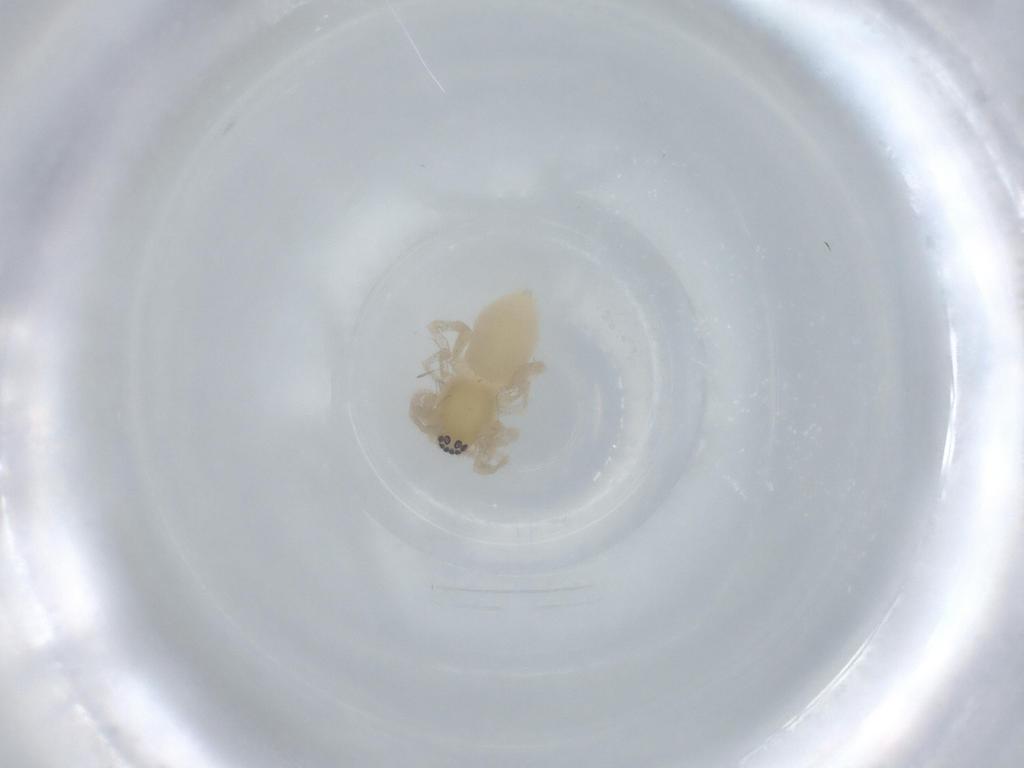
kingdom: Animalia
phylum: Arthropoda
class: Arachnida
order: Araneae
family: Anyphaenidae
